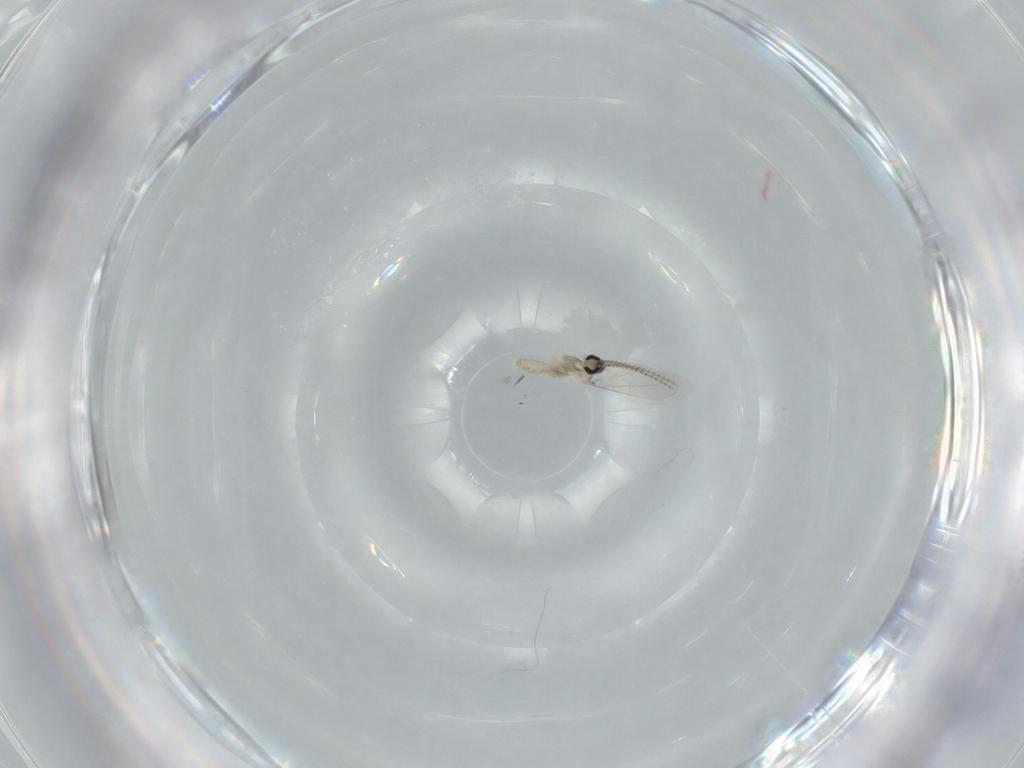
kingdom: Animalia
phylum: Arthropoda
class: Insecta
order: Diptera
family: Cecidomyiidae
